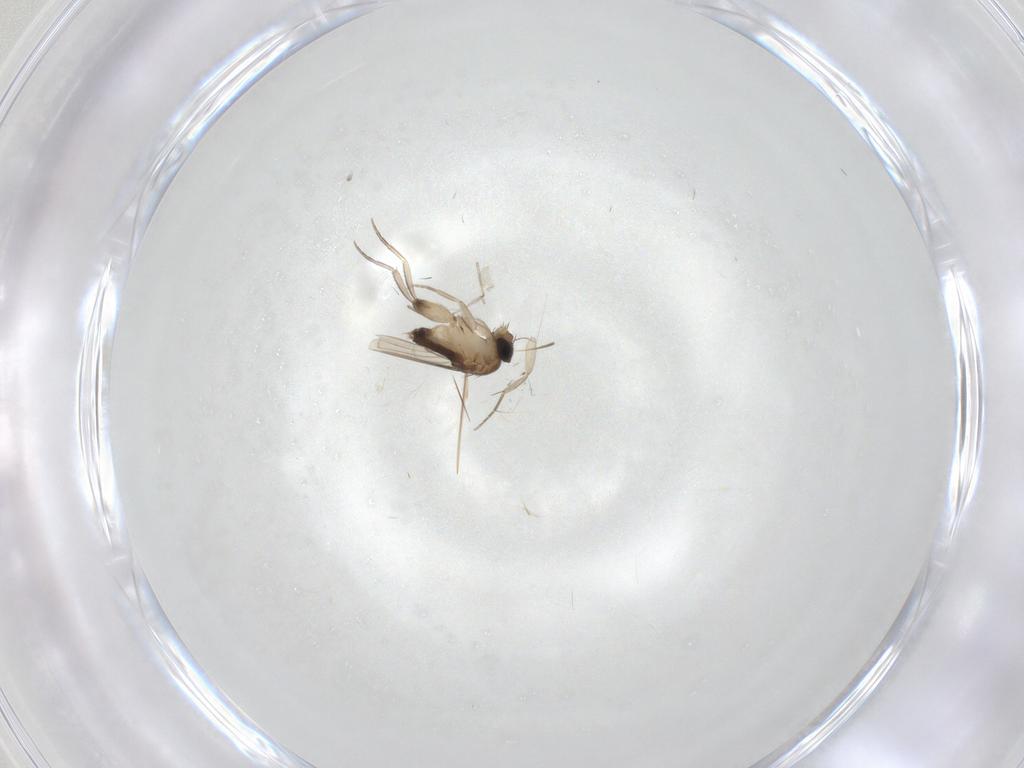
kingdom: Animalia
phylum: Arthropoda
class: Insecta
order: Diptera
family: Phoridae
